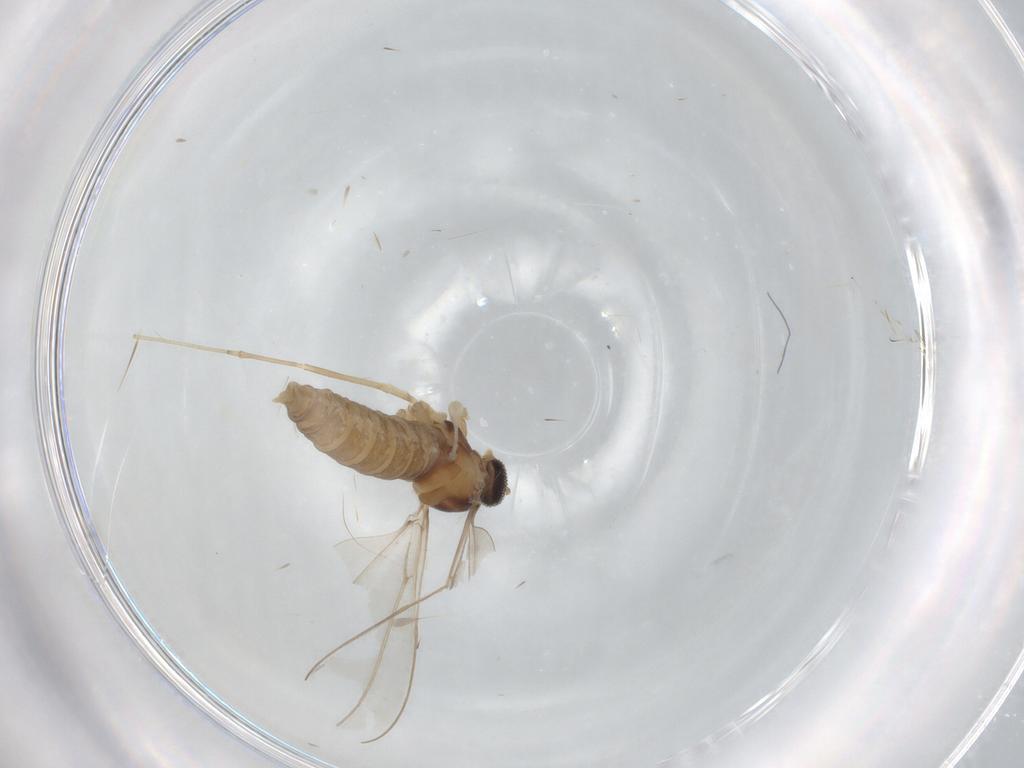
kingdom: Animalia
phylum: Arthropoda
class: Insecta
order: Diptera
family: Cecidomyiidae
